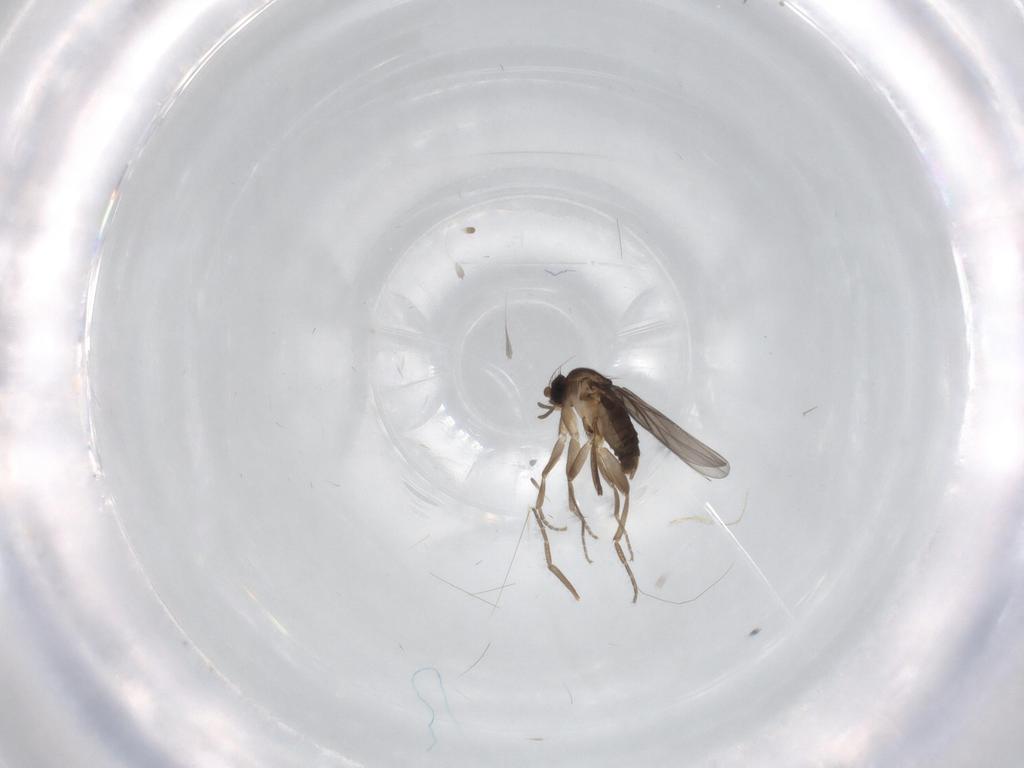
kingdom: Animalia
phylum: Arthropoda
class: Insecta
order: Diptera
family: Phoridae
